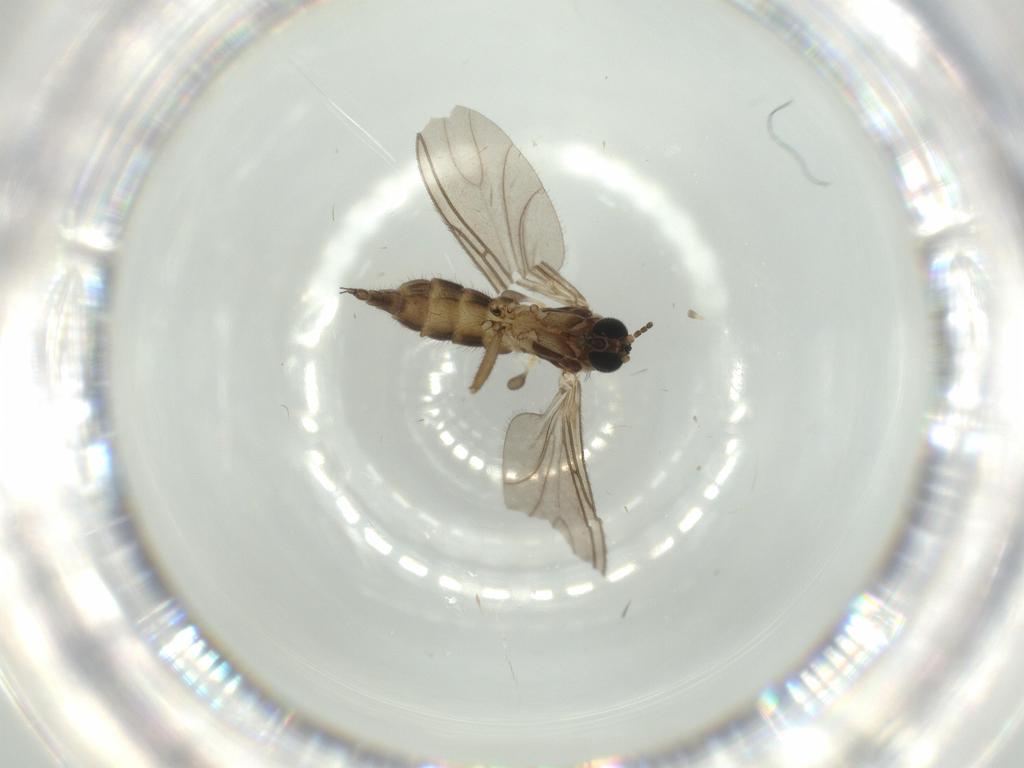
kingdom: Animalia
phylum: Arthropoda
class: Insecta
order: Diptera
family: Sciaridae
